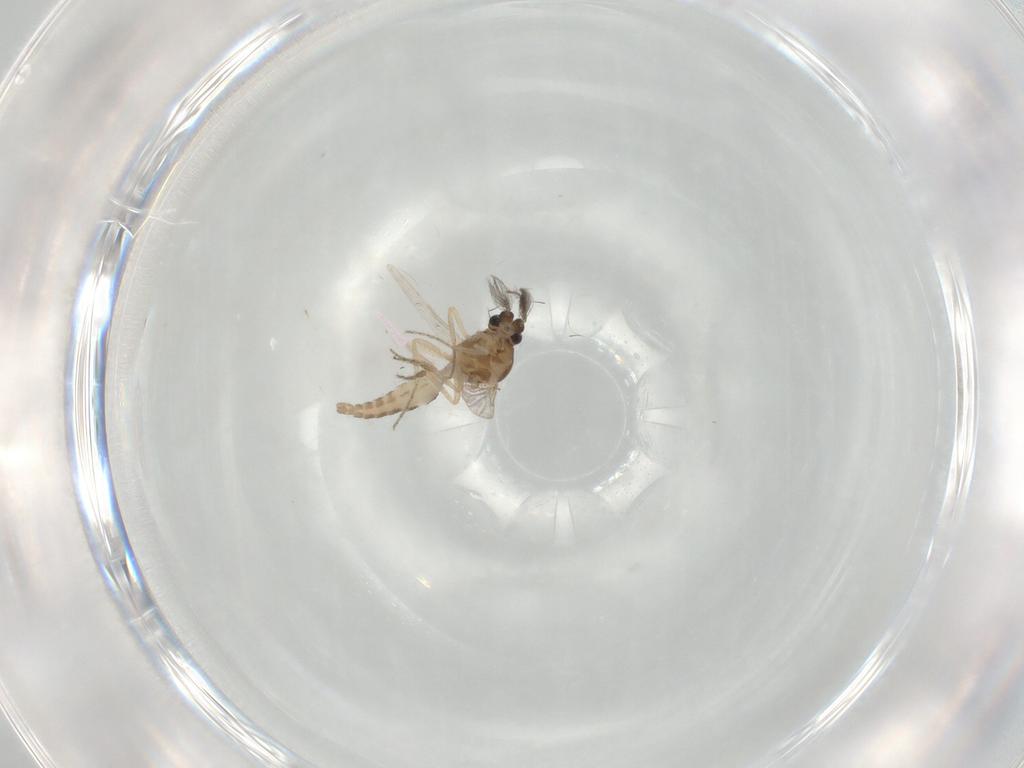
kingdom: Animalia
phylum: Arthropoda
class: Insecta
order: Diptera
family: Ceratopogonidae
